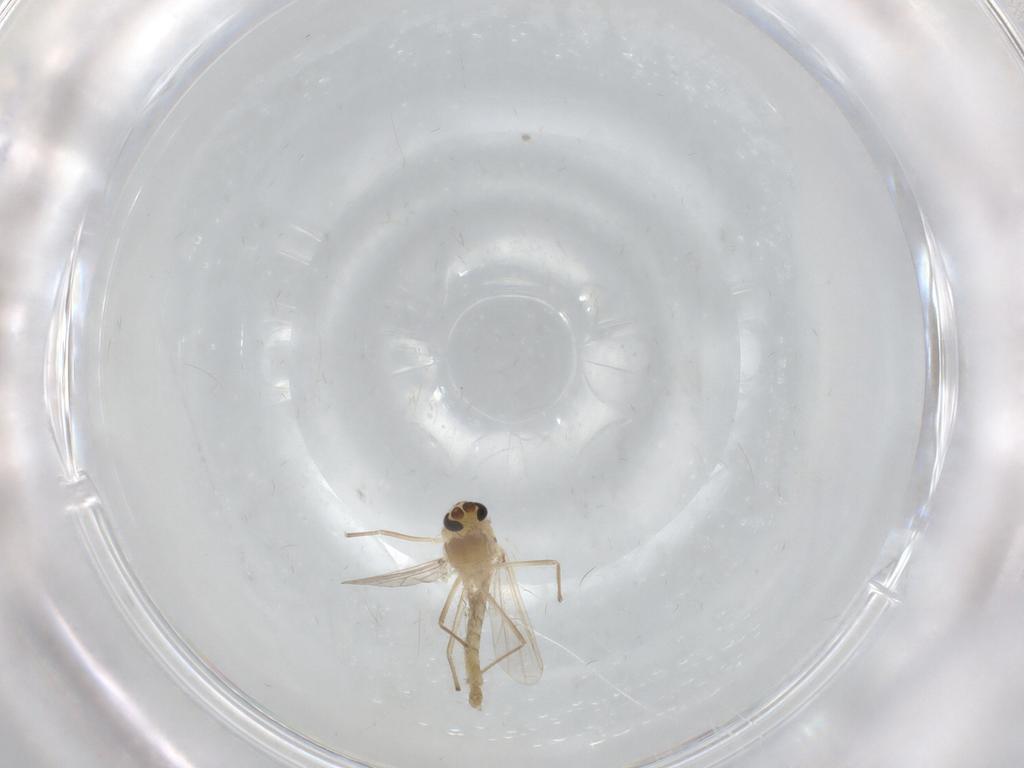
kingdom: Animalia
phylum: Arthropoda
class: Insecta
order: Diptera
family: Chironomidae
